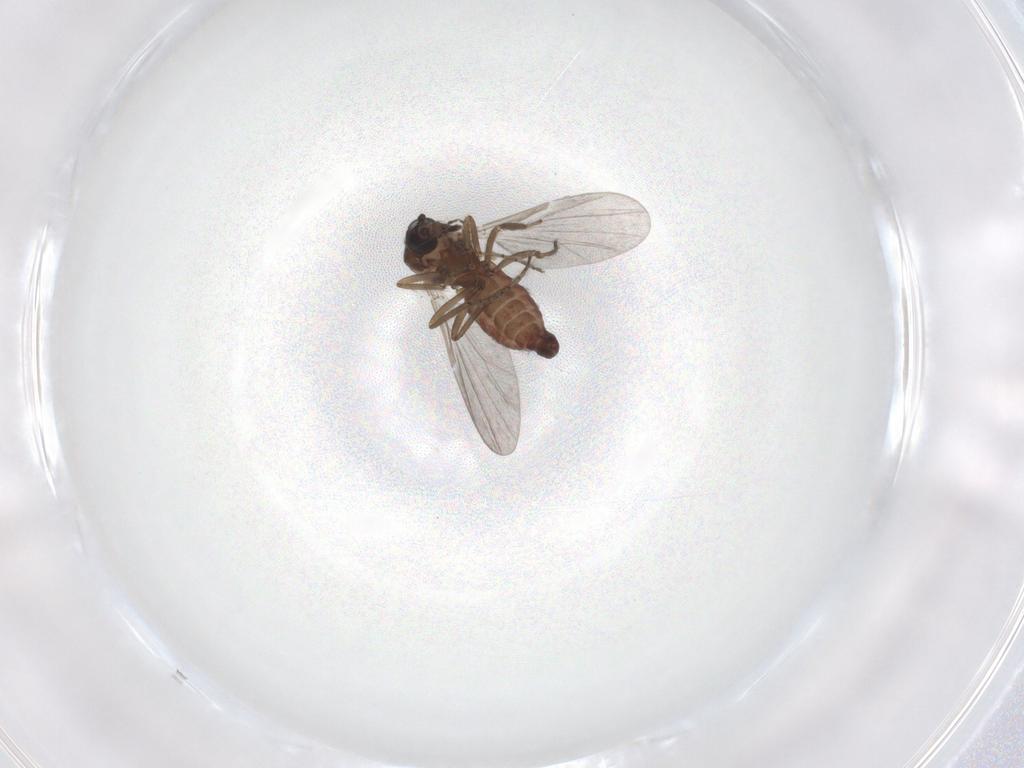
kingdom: Animalia
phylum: Arthropoda
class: Insecta
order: Diptera
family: Ceratopogonidae
